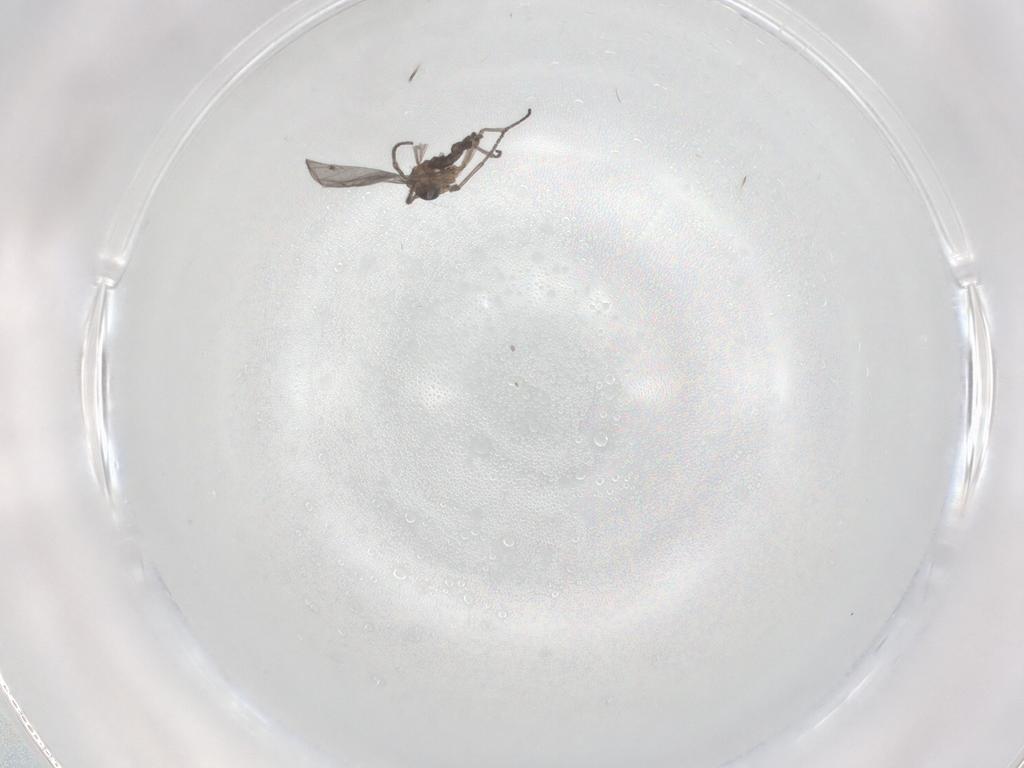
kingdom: Animalia
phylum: Arthropoda
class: Insecta
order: Diptera
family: Sciaridae
